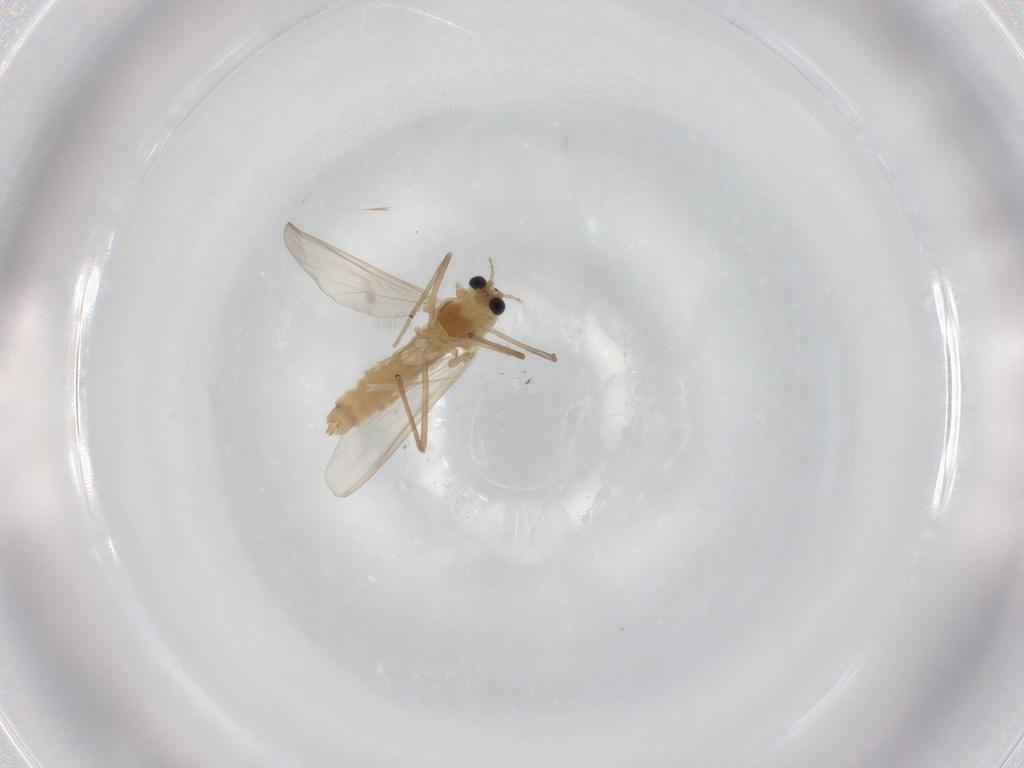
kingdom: Animalia
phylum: Arthropoda
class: Insecta
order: Diptera
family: Ceratopogonidae
